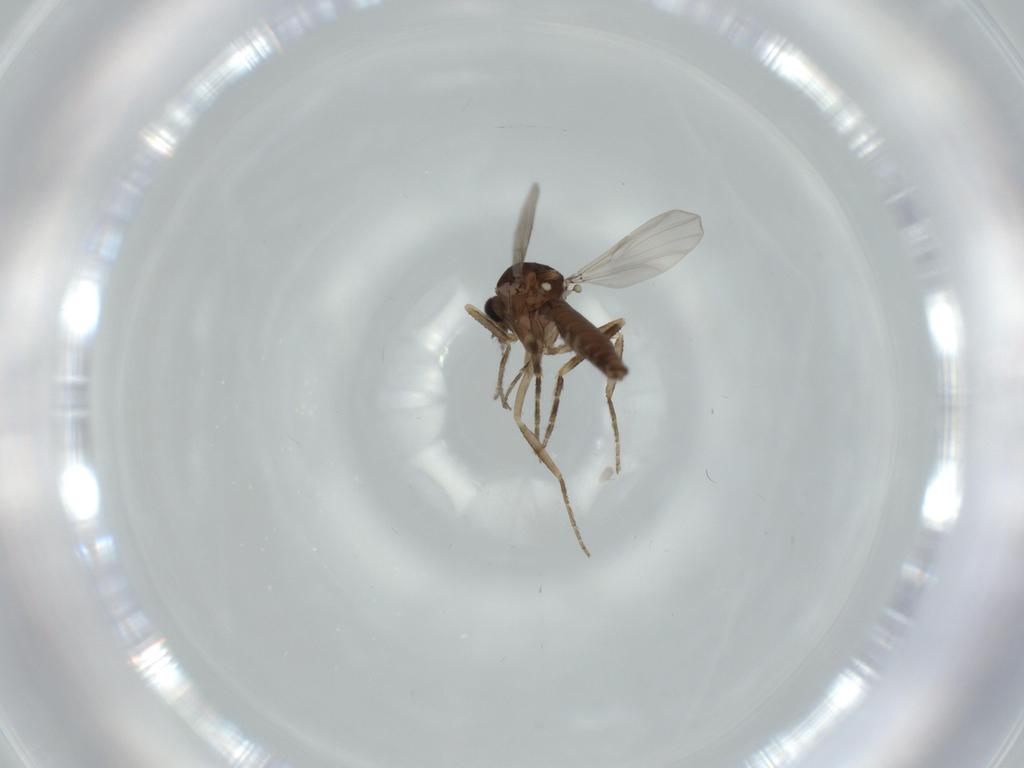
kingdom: Animalia
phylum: Arthropoda
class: Insecta
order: Diptera
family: Ceratopogonidae
